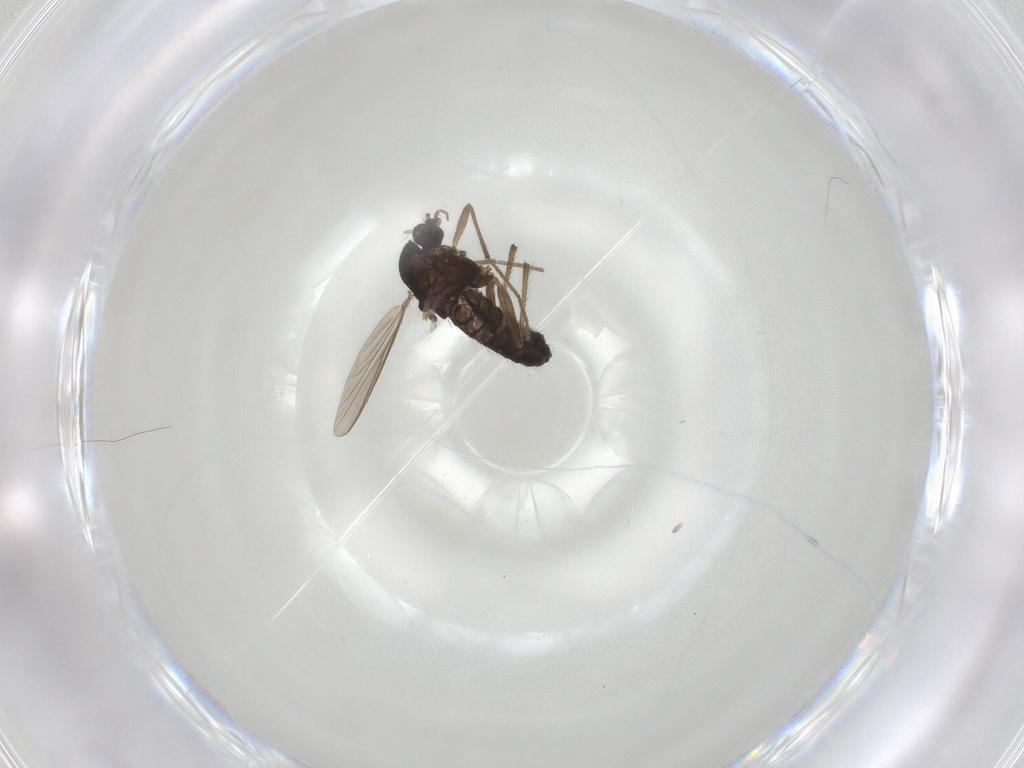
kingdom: Animalia
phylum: Arthropoda
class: Insecta
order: Diptera
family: Chironomidae
